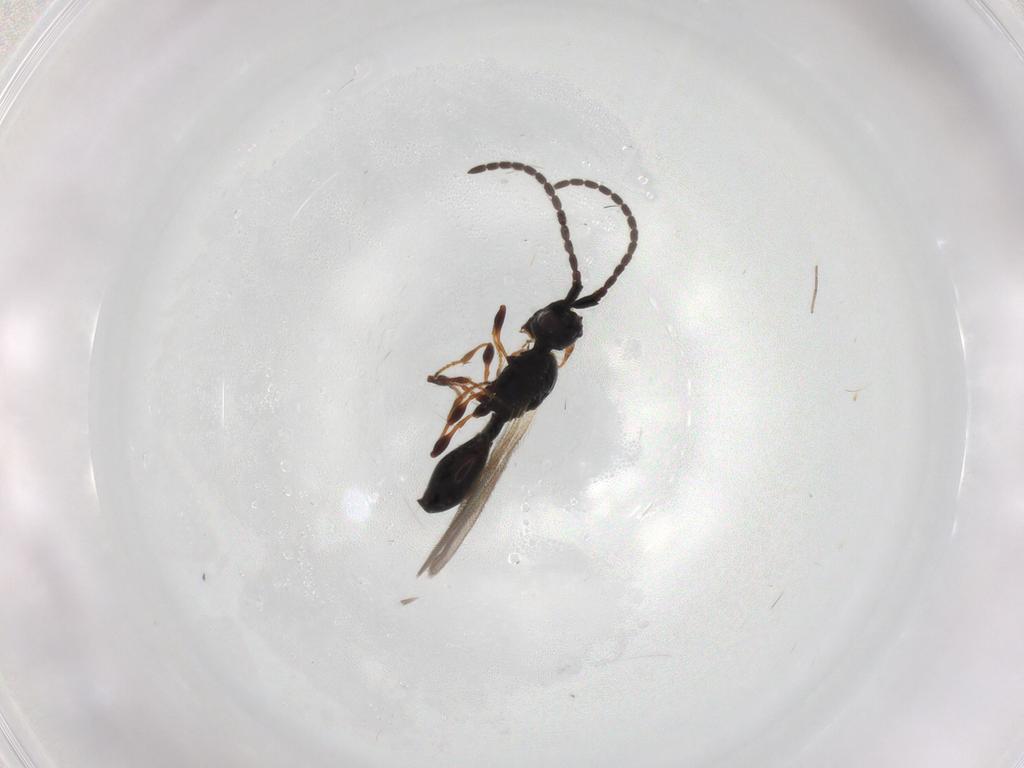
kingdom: Animalia
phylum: Arthropoda
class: Insecta
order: Hymenoptera
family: Diapriidae
